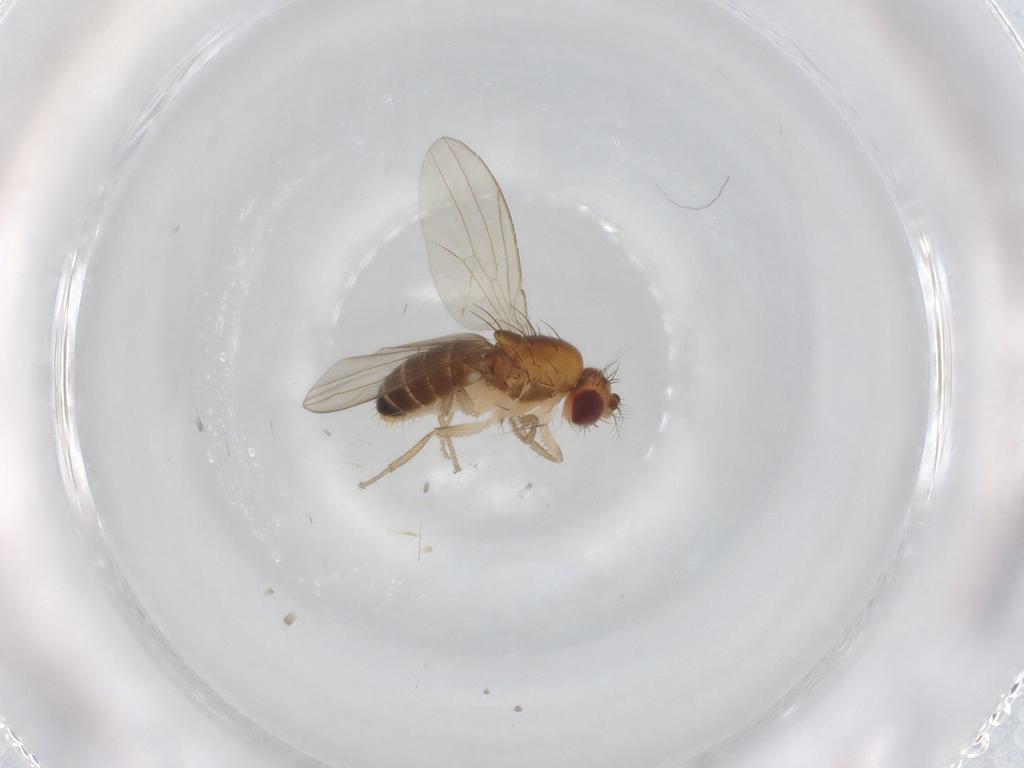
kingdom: Animalia
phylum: Arthropoda
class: Insecta
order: Diptera
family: Drosophilidae
